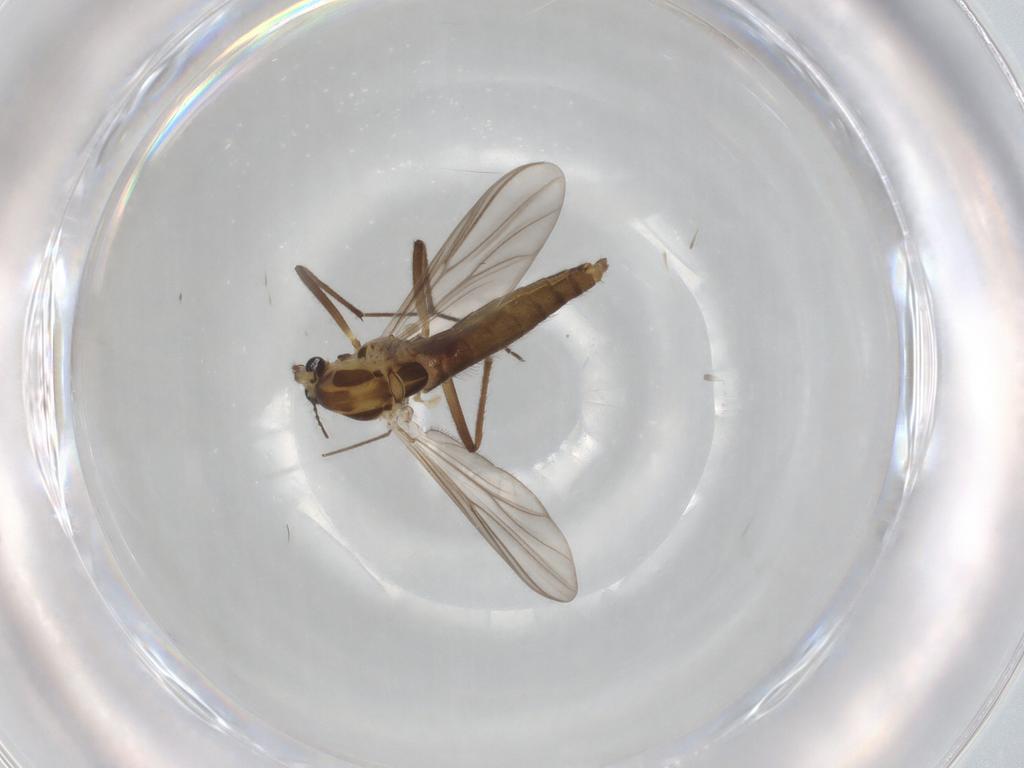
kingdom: Animalia
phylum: Arthropoda
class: Insecta
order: Diptera
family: Chironomidae
